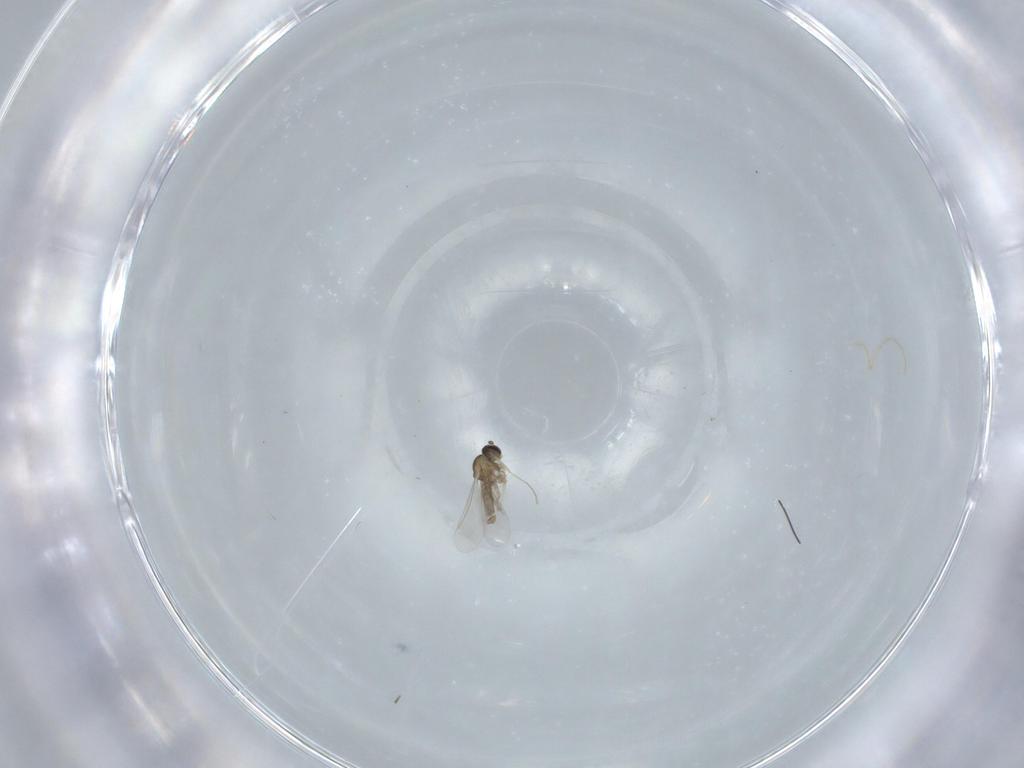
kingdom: Animalia
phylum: Arthropoda
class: Insecta
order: Diptera
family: Cecidomyiidae
